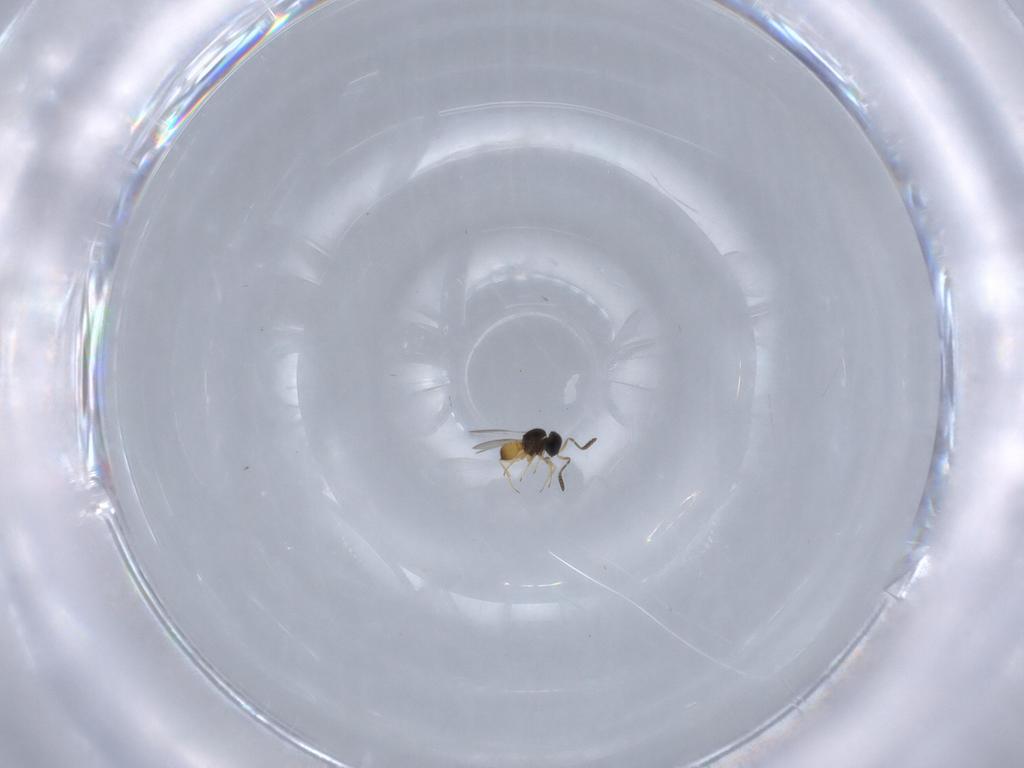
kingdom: Animalia
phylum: Arthropoda
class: Insecta
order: Hymenoptera
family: Scelionidae
